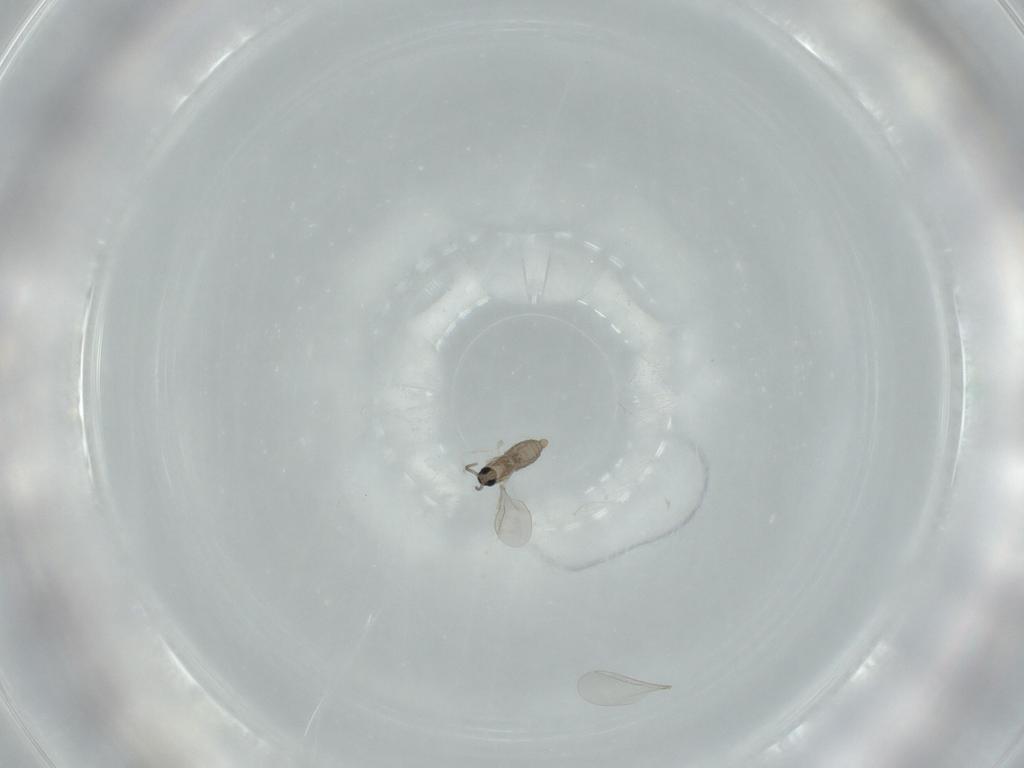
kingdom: Animalia
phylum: Arthropoda
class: Insecta
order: Diptera
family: Cecidomyiidae
